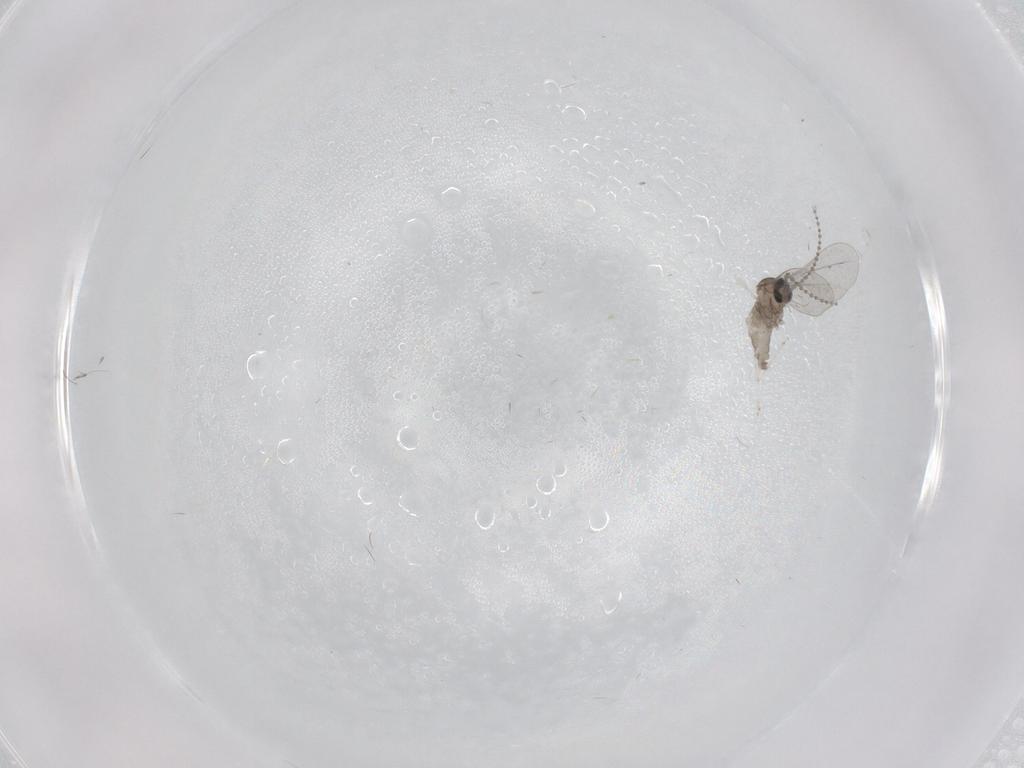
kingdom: Animalia
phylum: Arthropoda
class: Insecta
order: Diptera
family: Cecidomyiidae
